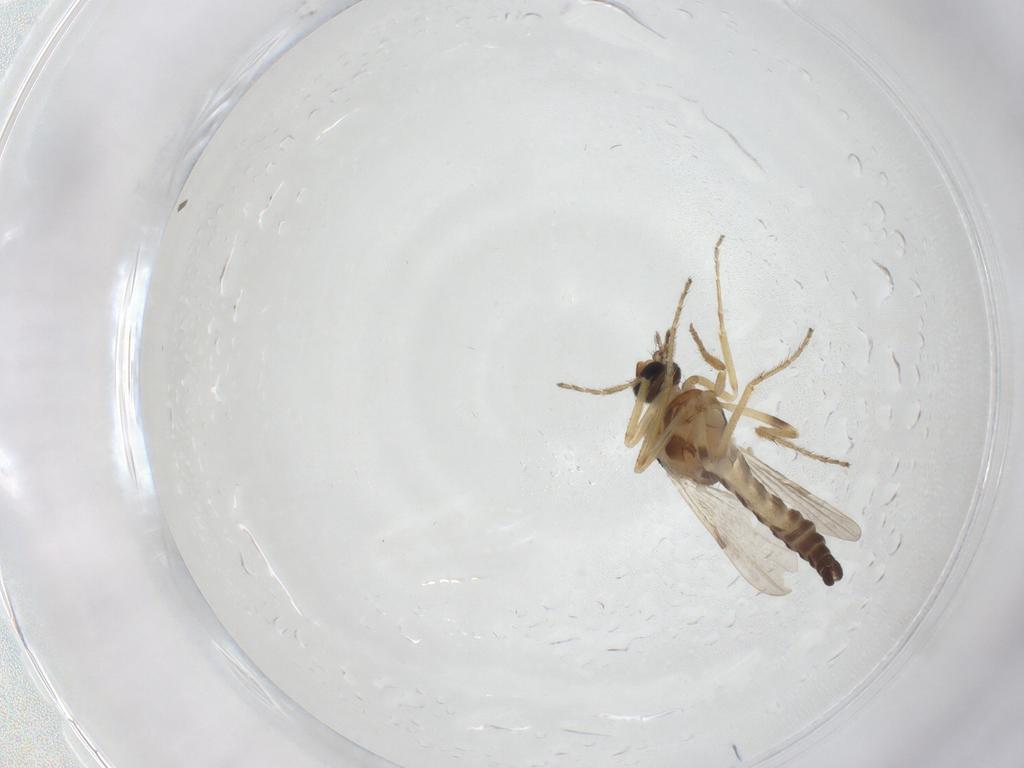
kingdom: Animalia
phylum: Arthropoda
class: Insecta
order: Diptera
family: Ceratopogonidae
